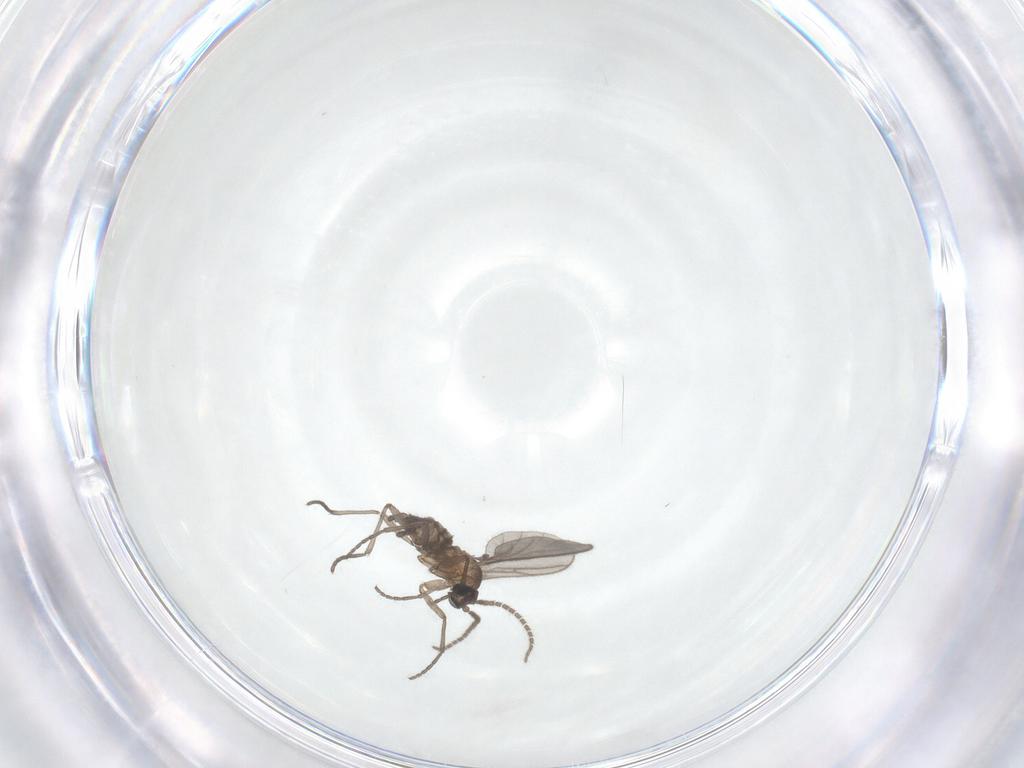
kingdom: Animalia
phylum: Arthropoda
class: Insecta
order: Diptera
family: Sciaridae
